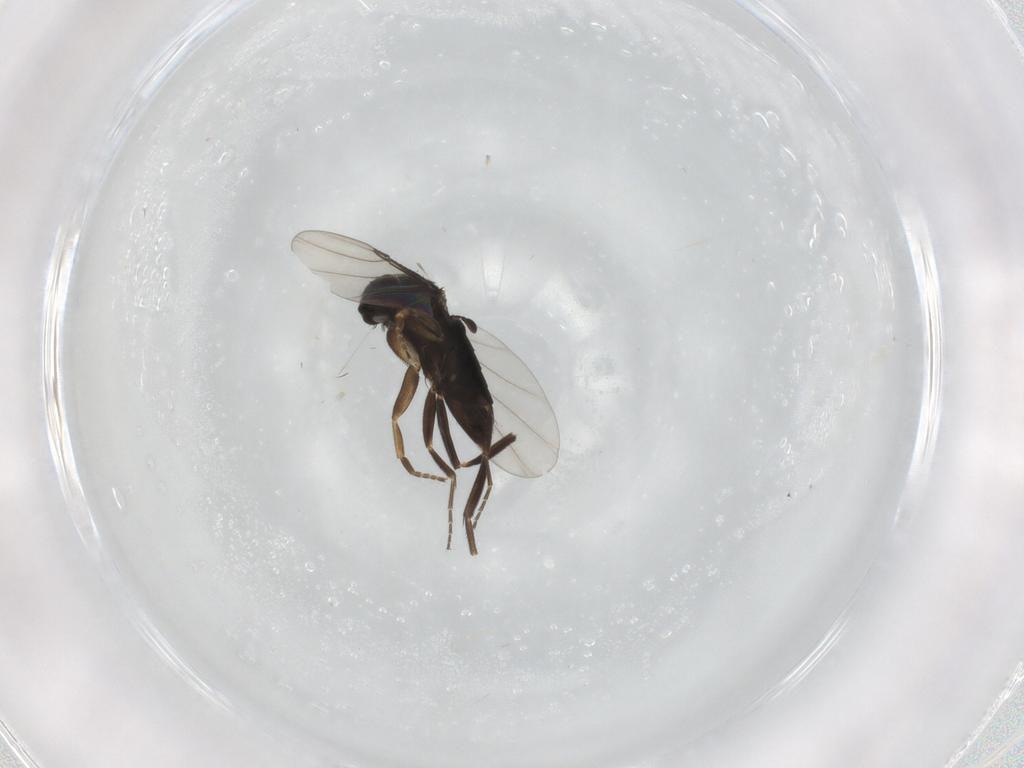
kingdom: Animalia
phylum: Arthropoda
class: Insecta
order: Diptera
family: Phoridae
